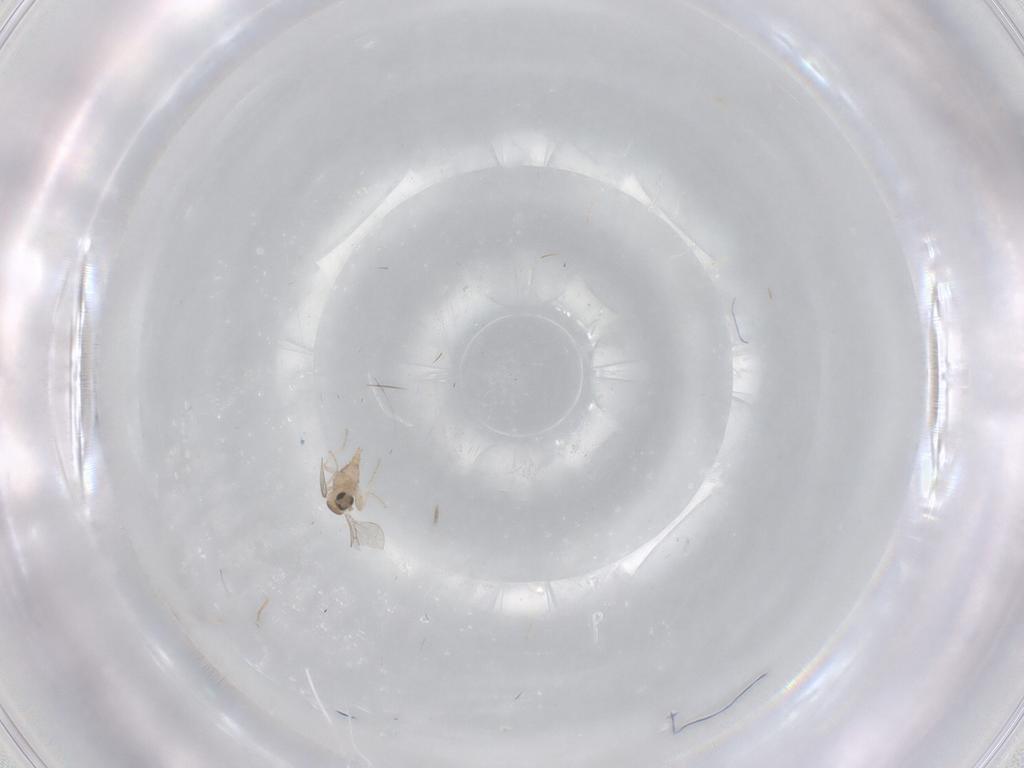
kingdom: Animalia
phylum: Arthropoda
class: Insecta
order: Diptera
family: Cecidomyiidae
